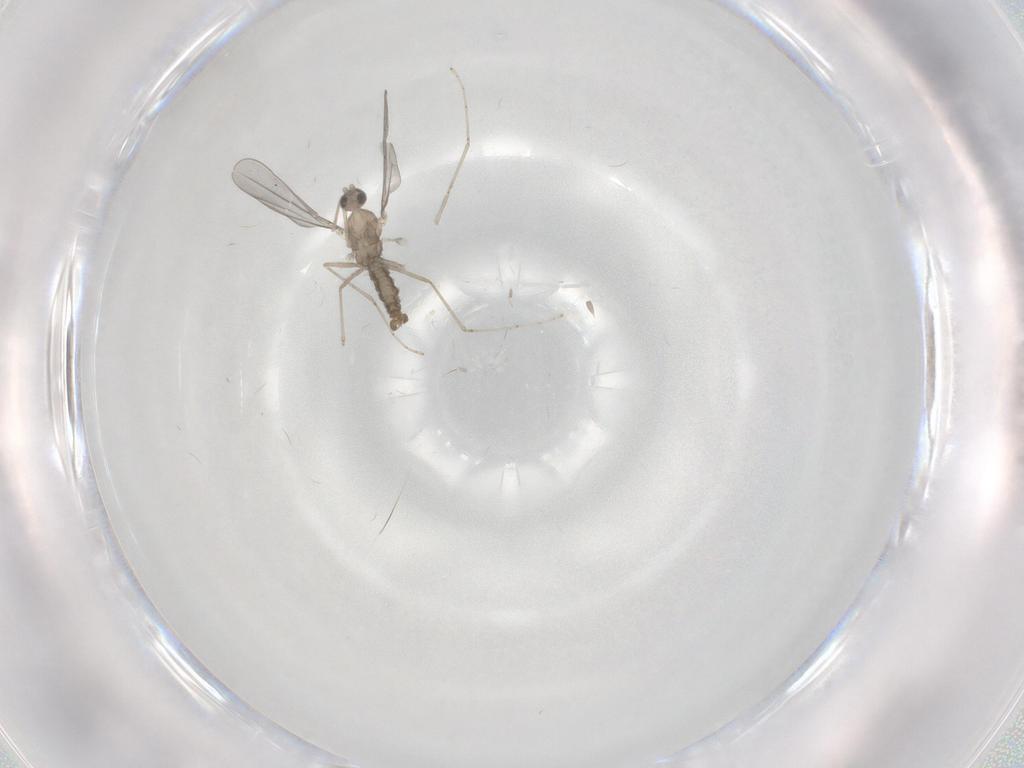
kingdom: Animalia
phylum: Arthropoda
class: Insecta
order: Diptera
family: Cecidomyiidae
